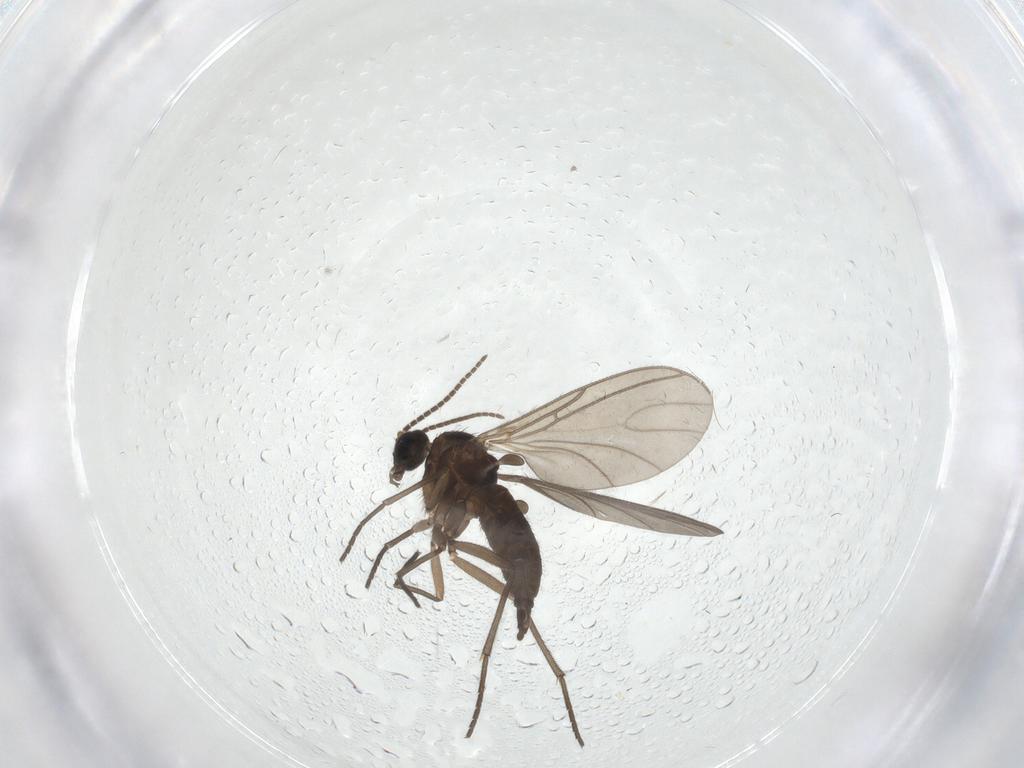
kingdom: Animalia
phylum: Arthropoda
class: Insecta
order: Diptera
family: Sciaridae
